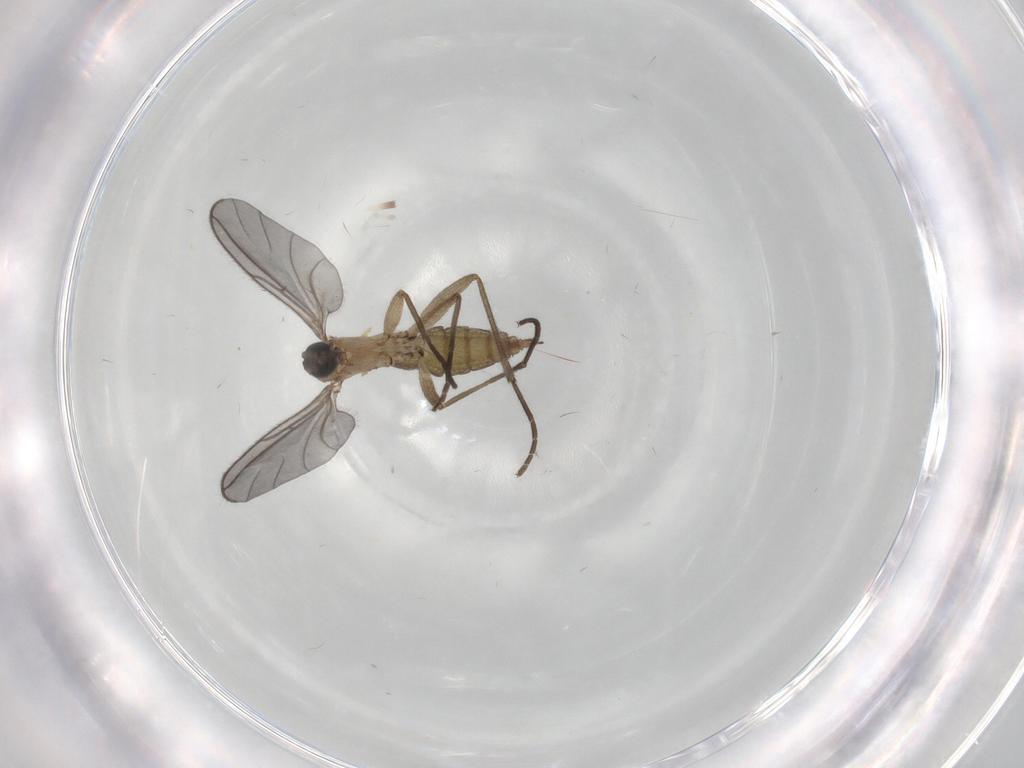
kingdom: Animalia
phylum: Arthropoda
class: Insecta
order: Diptera
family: Sciaridae
